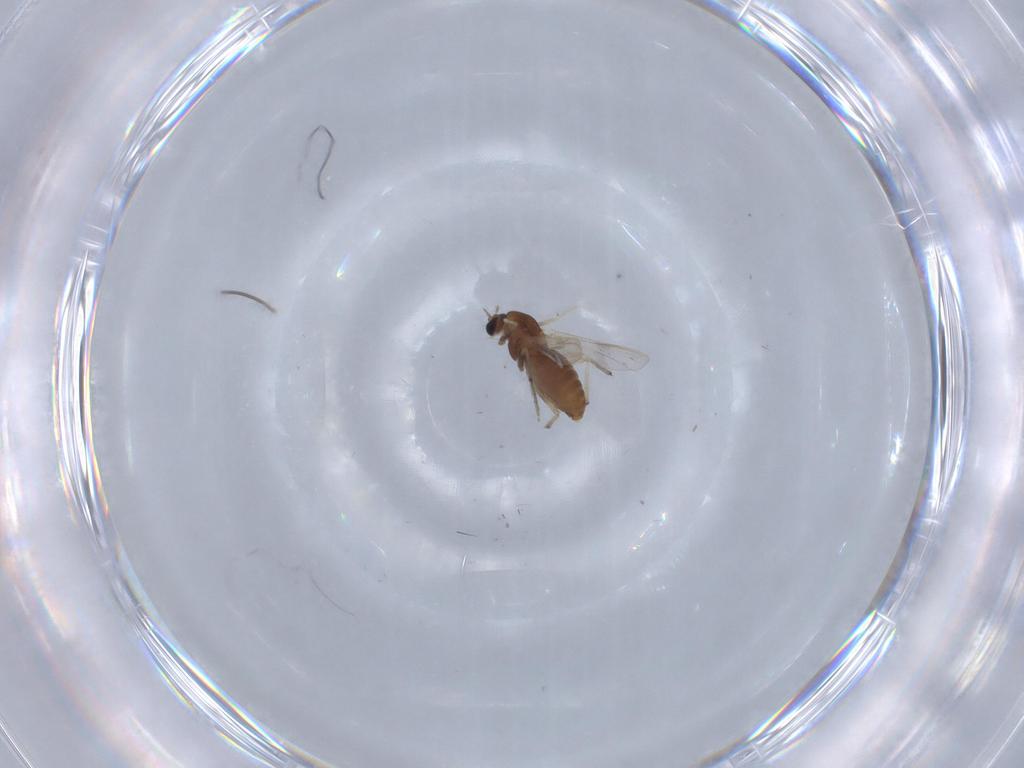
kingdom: Animalia
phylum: Arthropoda
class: Insecta
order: Diptera
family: Chironomidae
